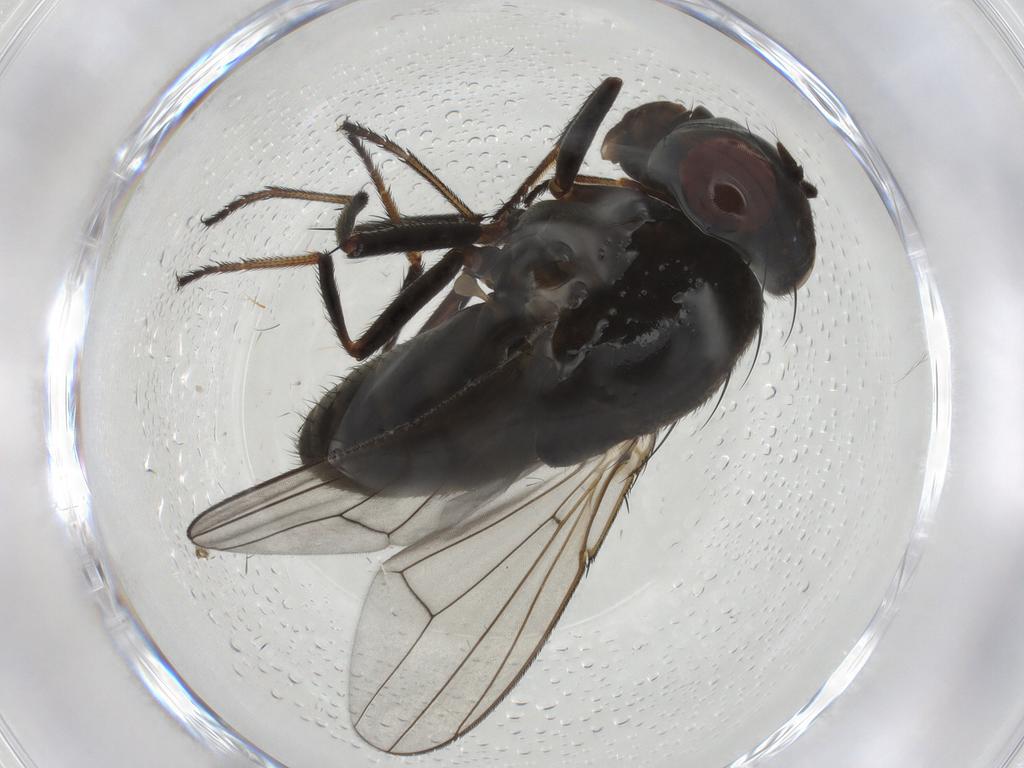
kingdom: Animalia
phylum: Arthropoda
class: Insecta
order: Diptera
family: Ephydridae
